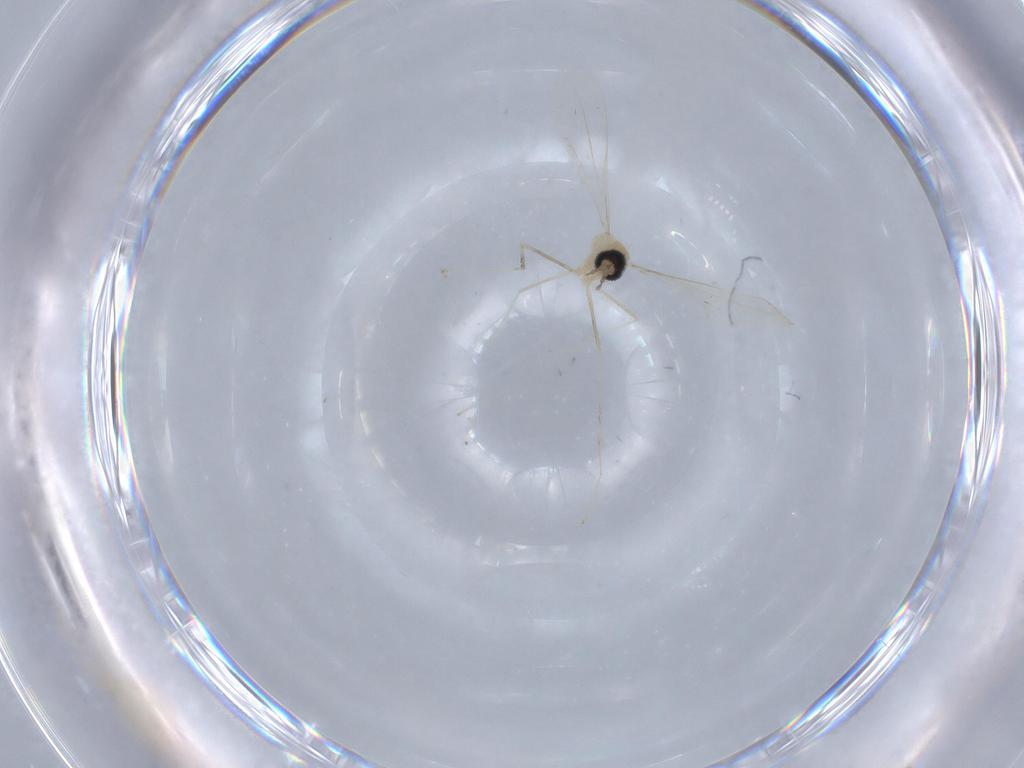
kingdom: Animalia
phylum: Arthropoda
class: Insecta
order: Diptera
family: Cecidomyiidae
